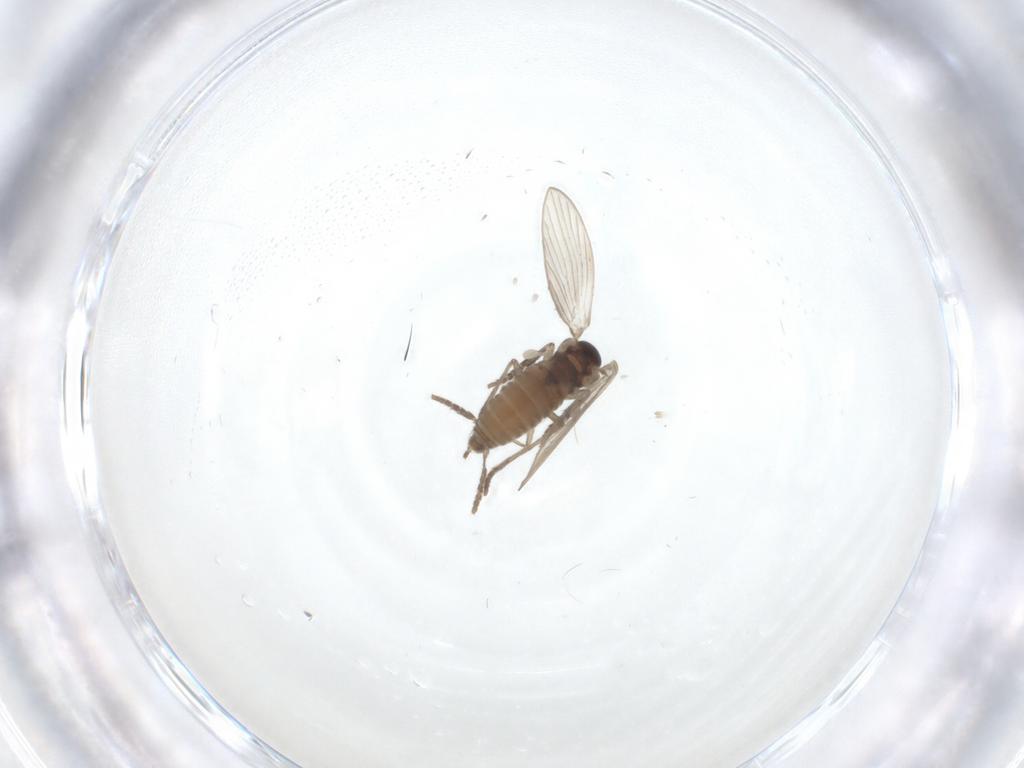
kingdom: Animalia
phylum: Arthropoda
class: Insecta
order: Diptera
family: Psychodidae
